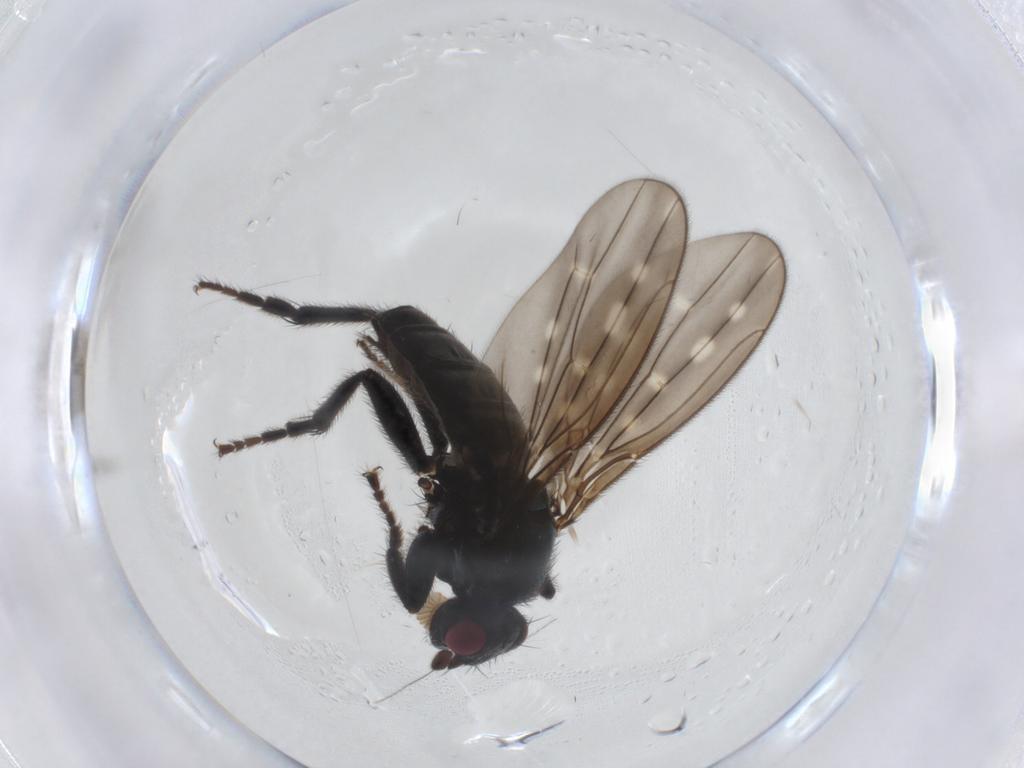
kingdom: Animalia
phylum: Arthropoda
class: Insecta
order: Diptera
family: Sphaeroceridae
